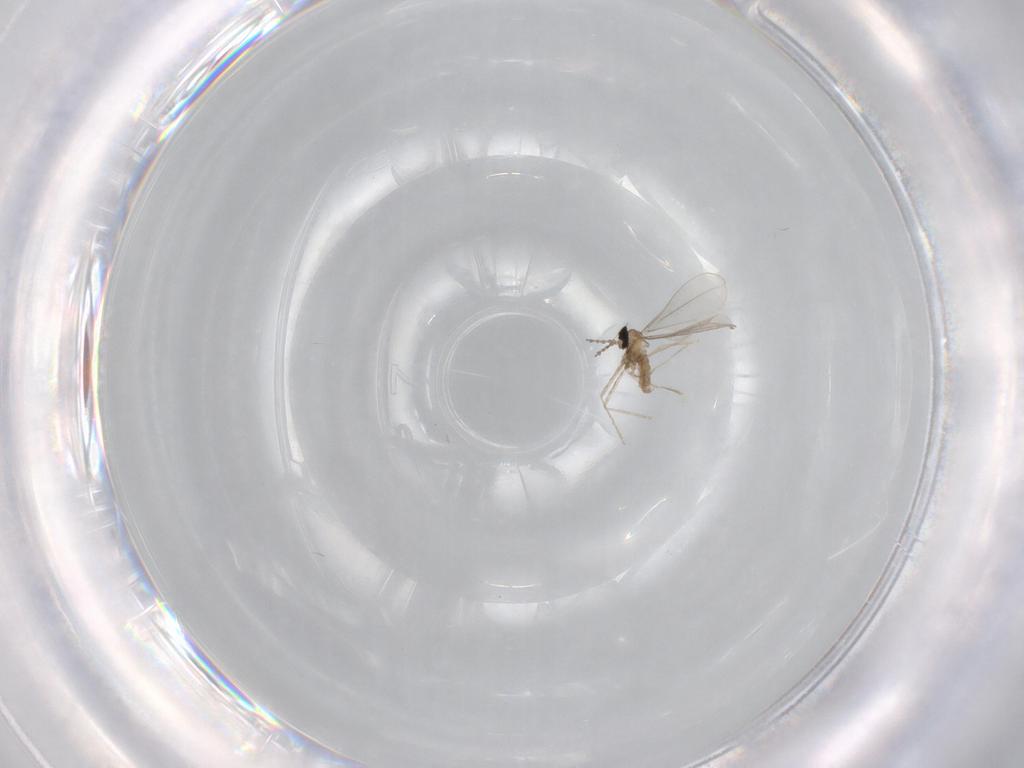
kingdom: Animalia
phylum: Arthropoda
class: Insecta
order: Diptera
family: Cecidomyiidae
